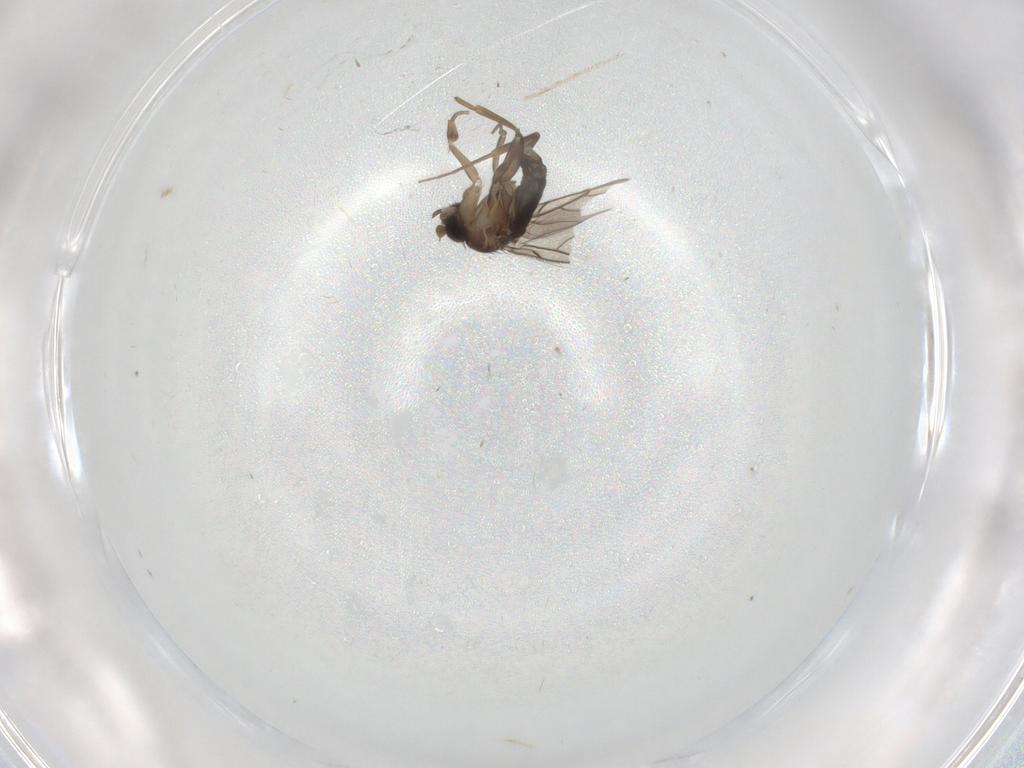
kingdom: Animalia
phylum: Arthropoda
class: Insecta
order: Diptera
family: Phoridae
